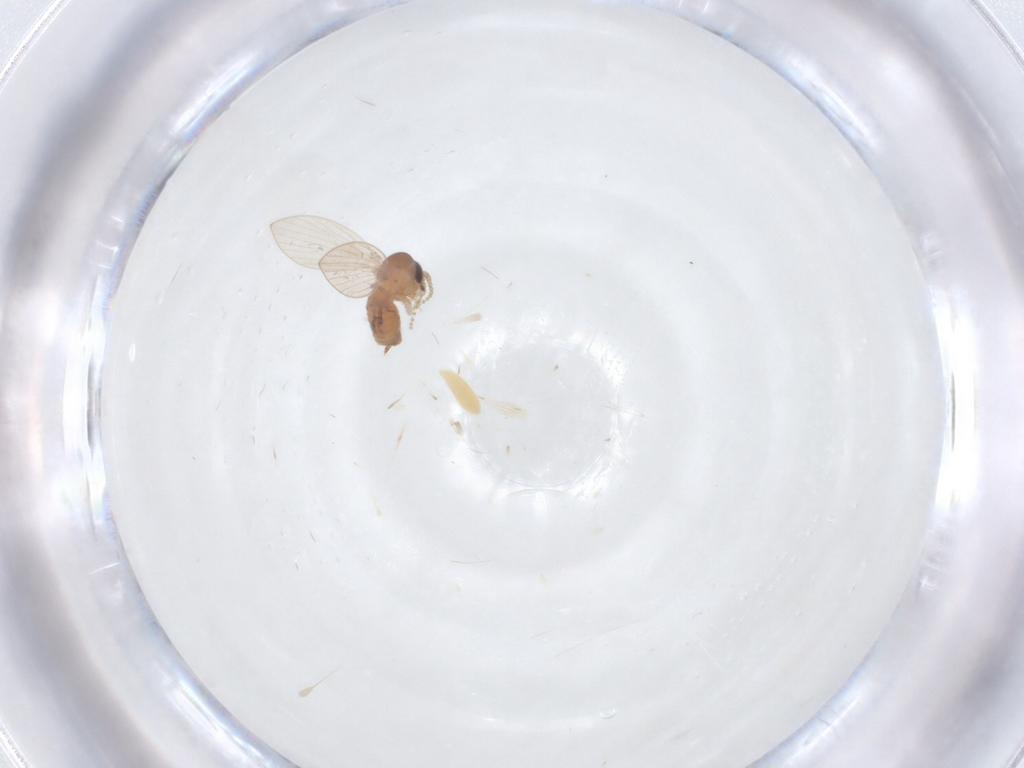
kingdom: Animalia
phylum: Arthropoda
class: Insecta
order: Diptera
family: Psychodidae
